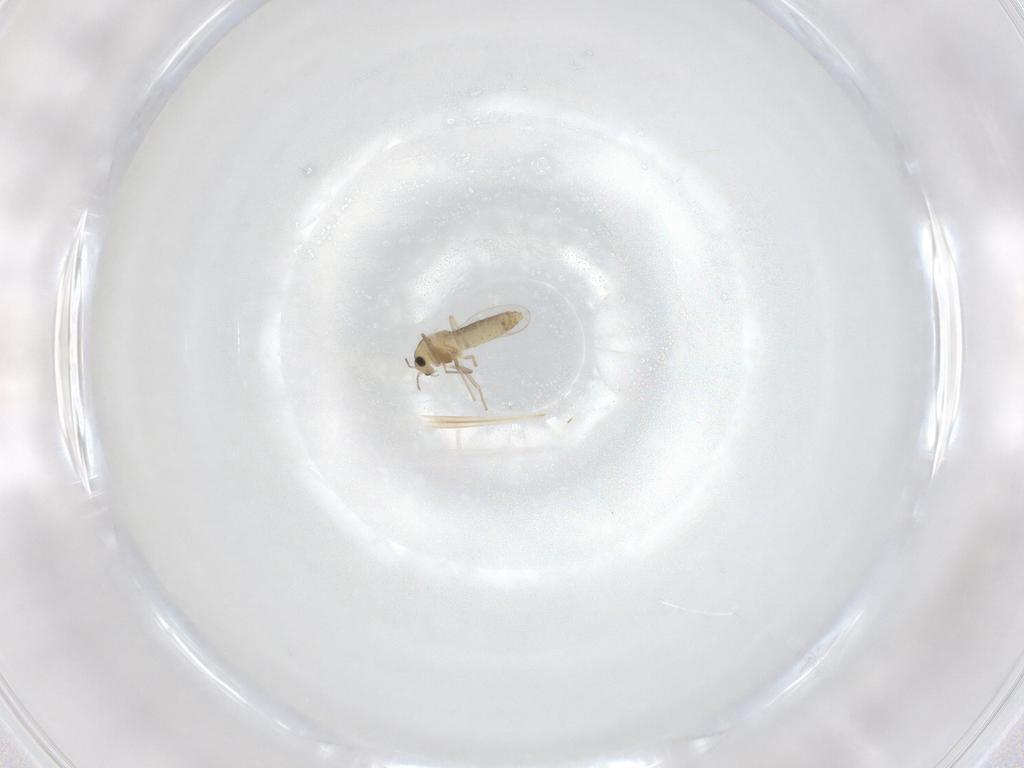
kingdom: Animalia
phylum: Arthropoda
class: Insecta
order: Diptera
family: Chironomidae
